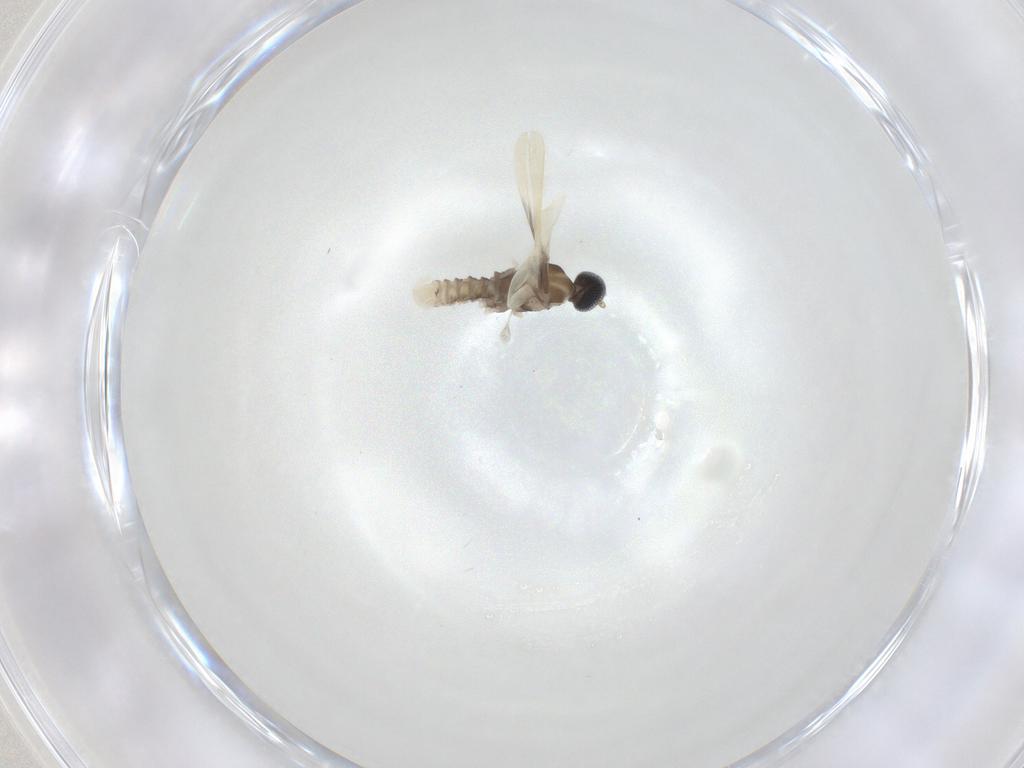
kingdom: Animalia
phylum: Arthropoda
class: Insecta
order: Diptera
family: Cecidomyiidae
